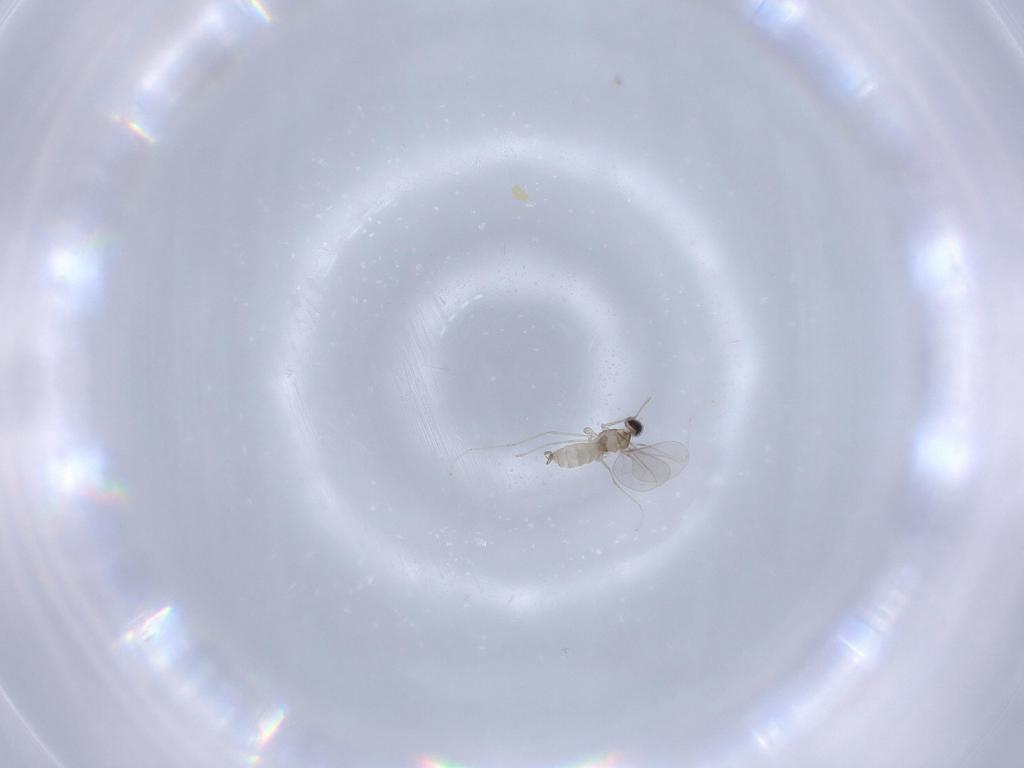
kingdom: Animalia
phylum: Arthropoda
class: Insecta
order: Diptera
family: Cecidomyiidae
